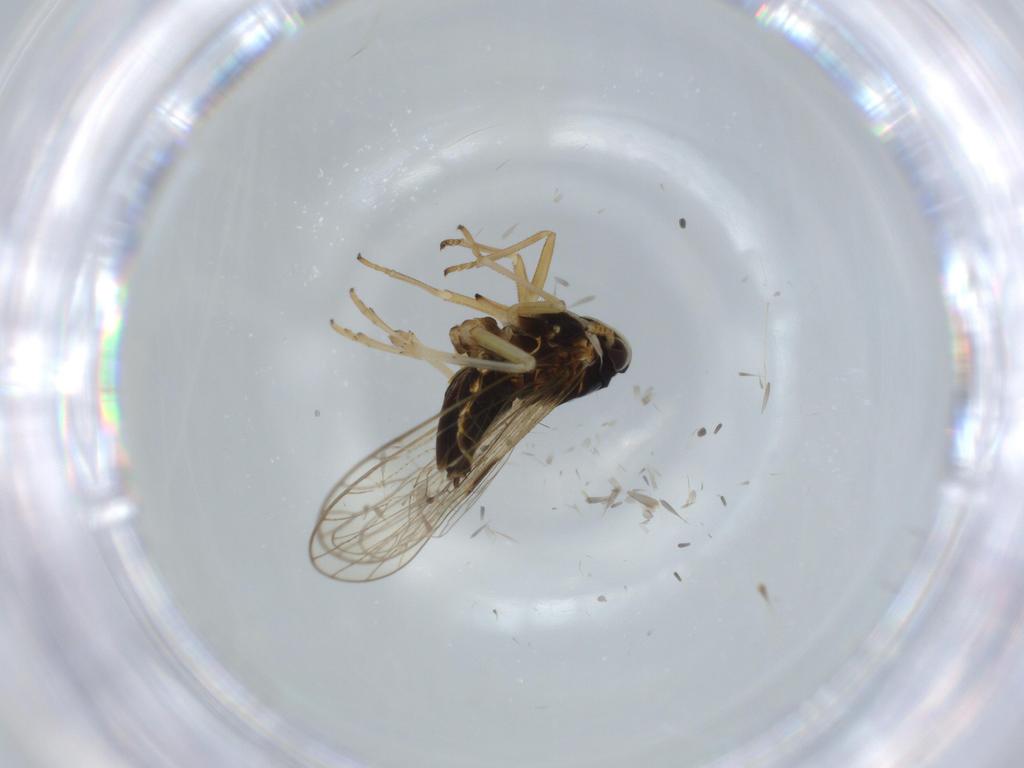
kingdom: Animalia
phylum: Arthropoda
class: Insecta
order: Hemiptera
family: Membracidae
